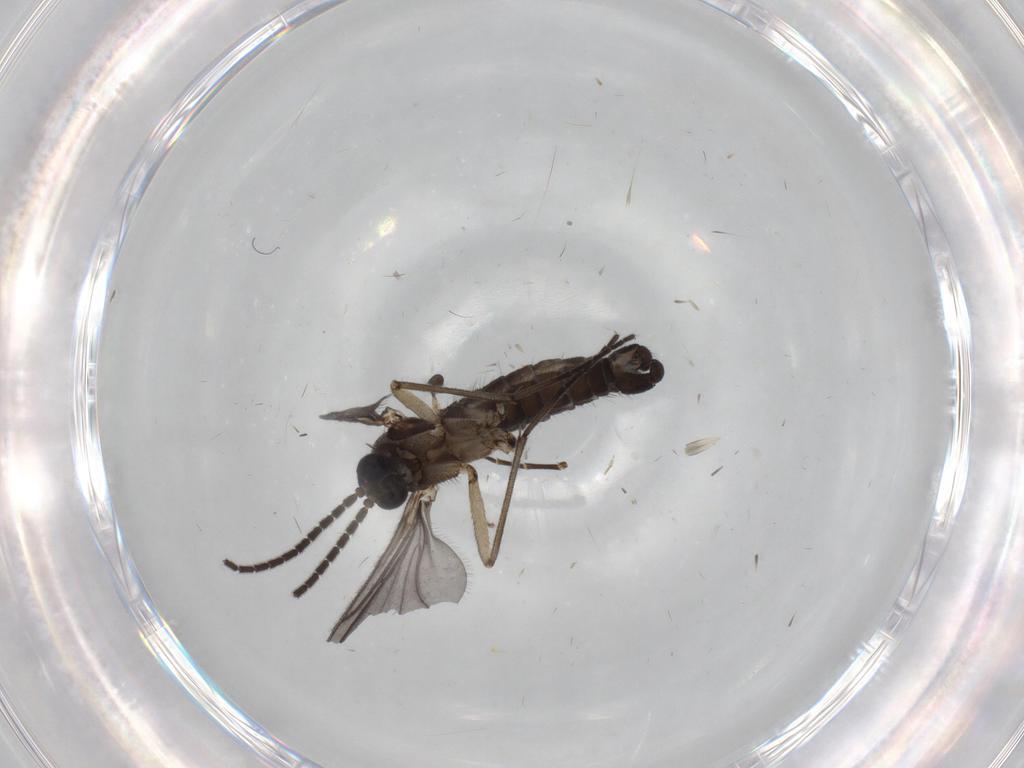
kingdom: Animalia
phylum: Arthropoda
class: Insecta
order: Diptera
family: Sciaridae
